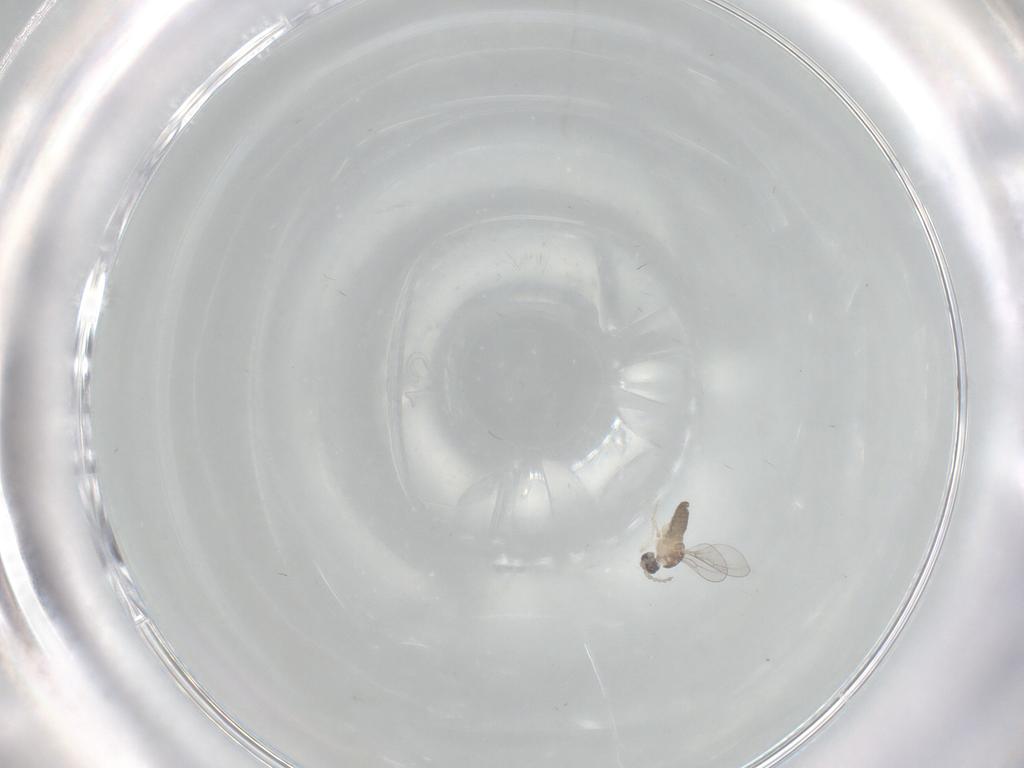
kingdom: Animalia
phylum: Arthropoda
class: Insecta
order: Diptera
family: Cecidomyiidae
